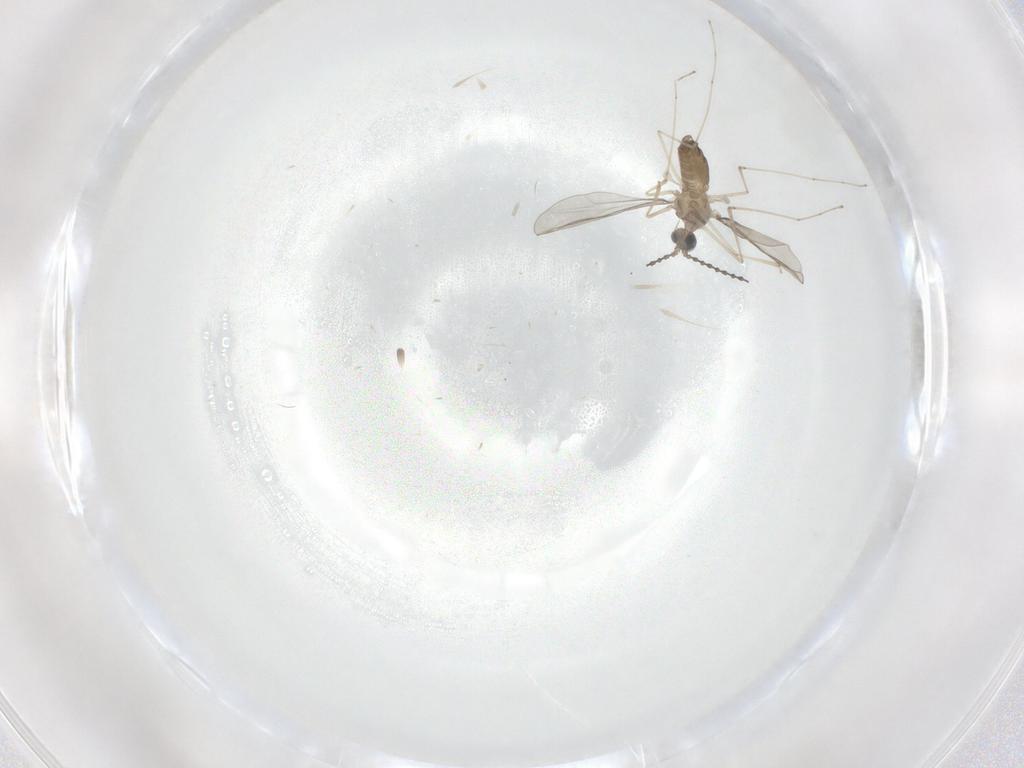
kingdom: Animalia
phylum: Arthropoda
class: Insecta
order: Diptera
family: Cecidomyiidae
